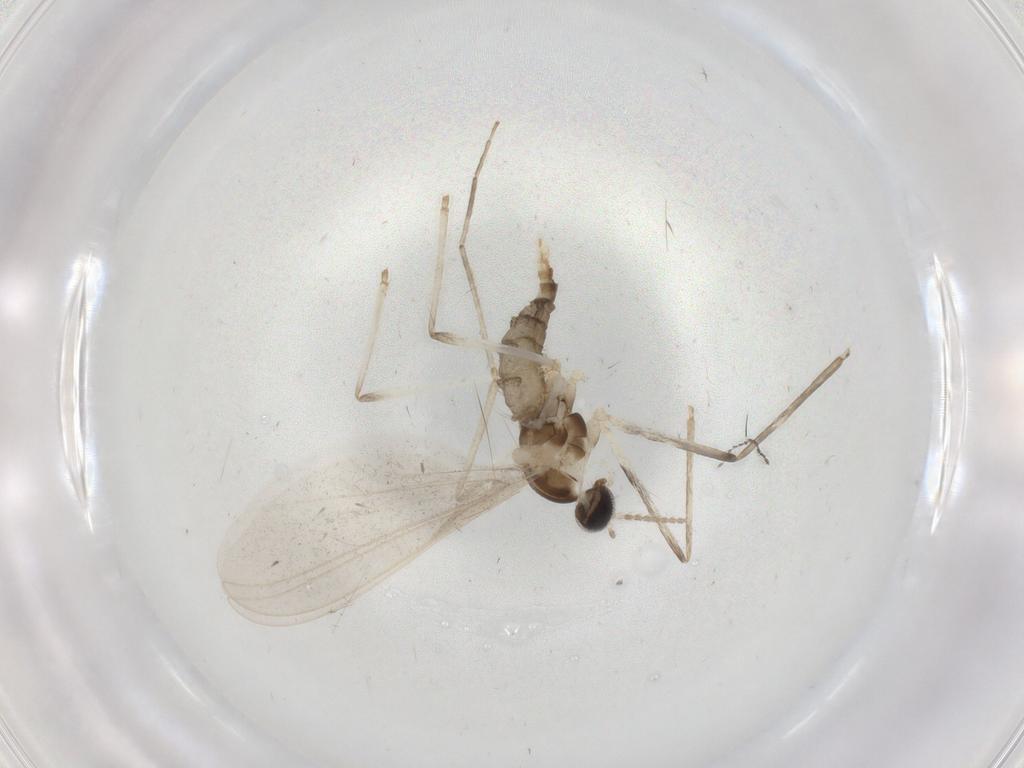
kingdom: Animalia
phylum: Arthropoda
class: Insecta
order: Diptera
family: Cecidomyiidae
